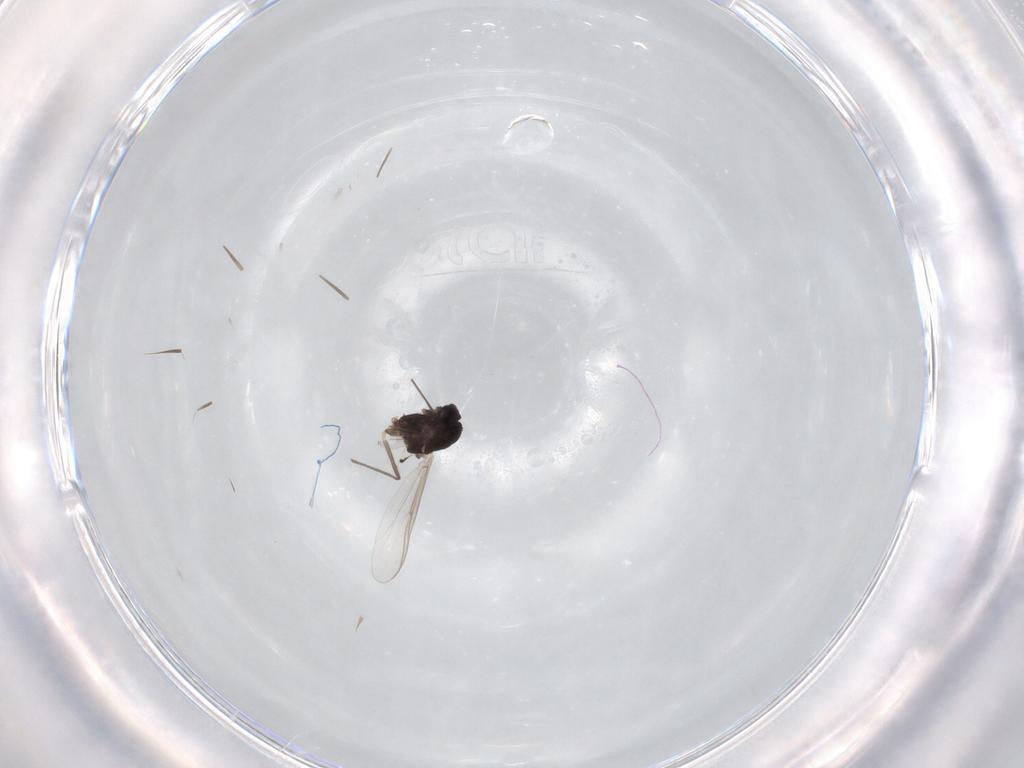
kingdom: Animalia
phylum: Arthropoda
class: Insecta
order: Diptera
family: Chironomidae
